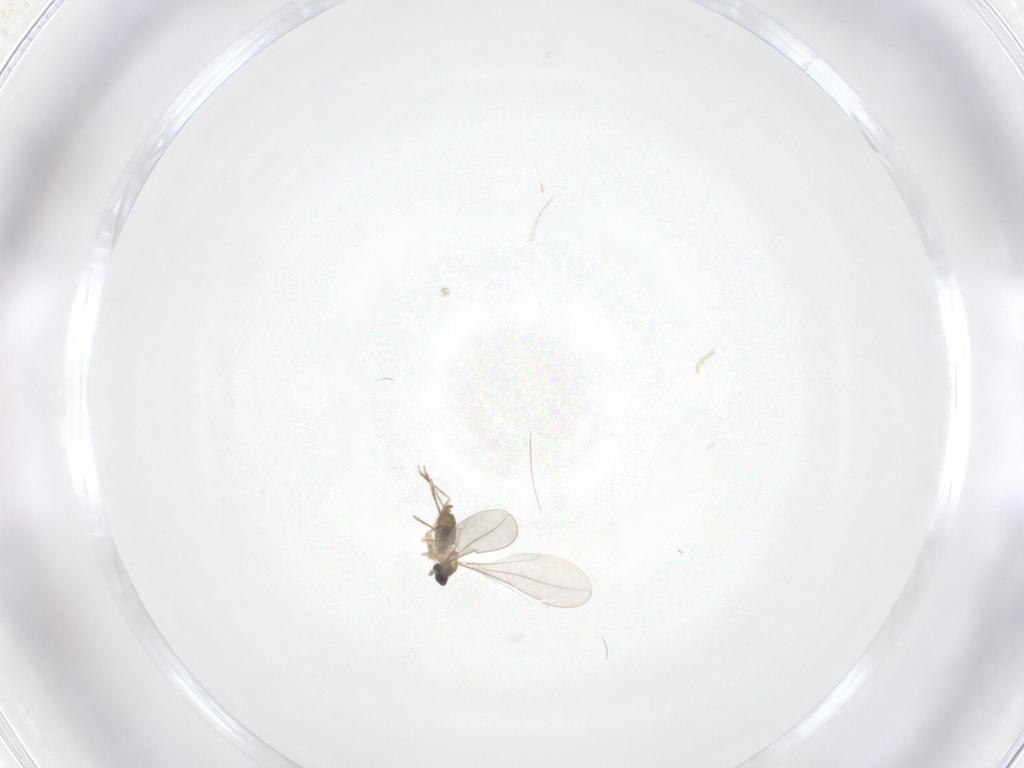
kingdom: Animalia
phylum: Arthropoda
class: Insecta
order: Diptera
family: Cecidomyiidae
